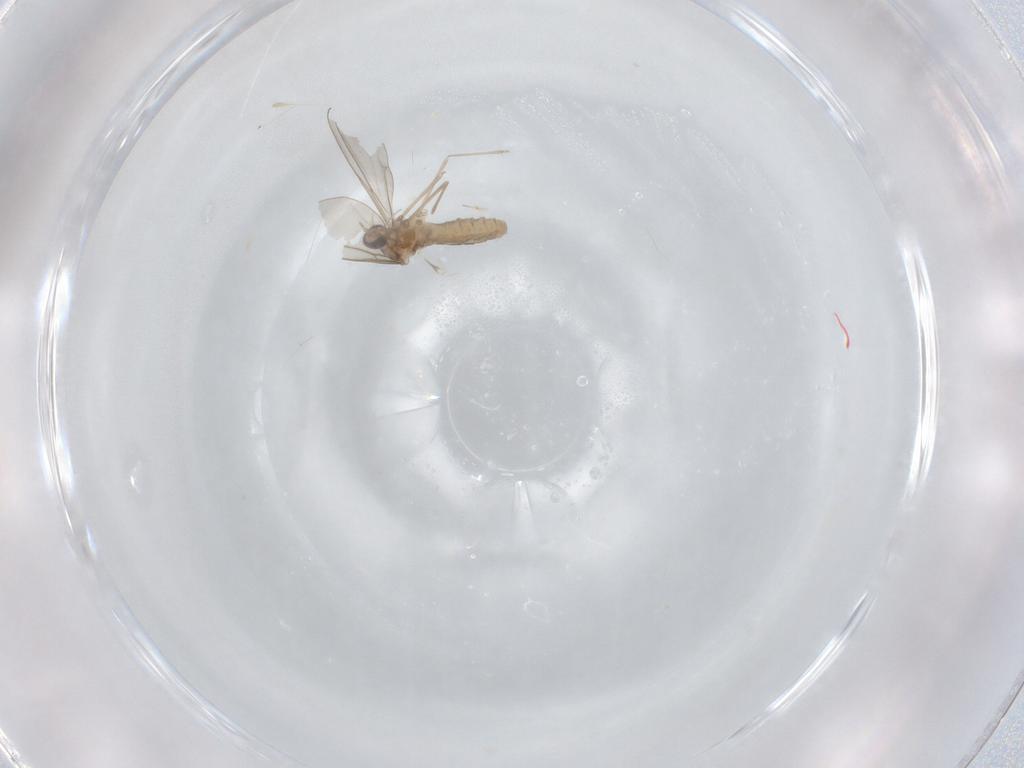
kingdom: Animalia
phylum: Arthropoda
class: Insecta
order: Diptera
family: Cecidomyiidae
